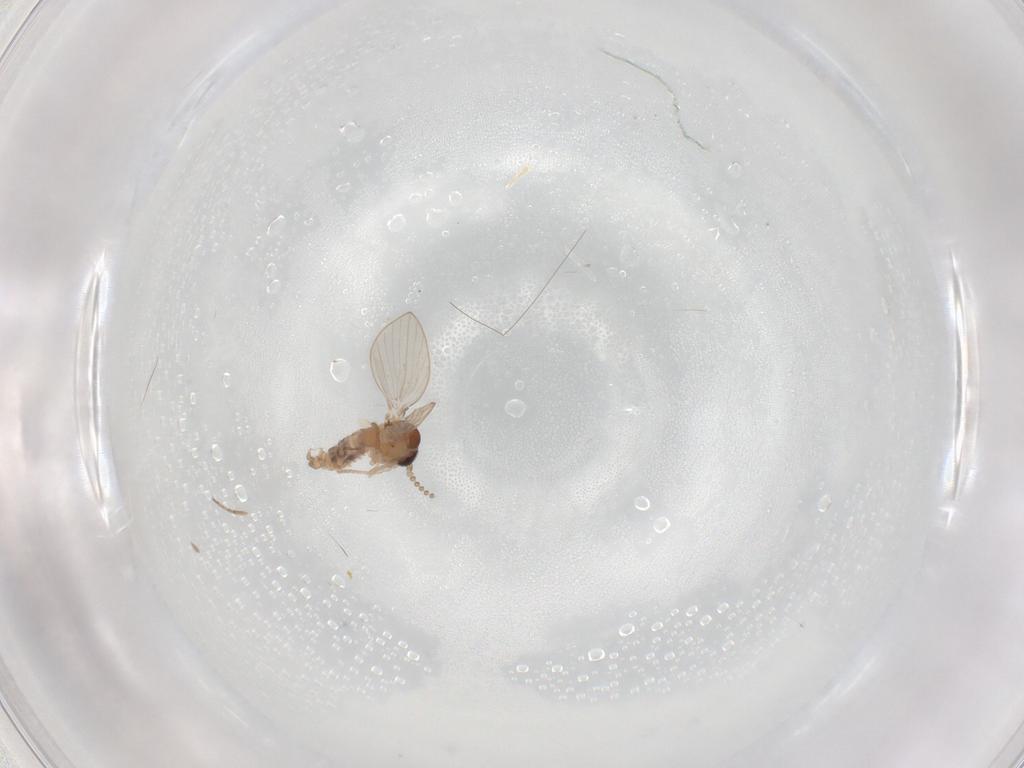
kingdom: Animalia
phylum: Arthropoda
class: Insecta
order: Diptera
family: Psychodidae
